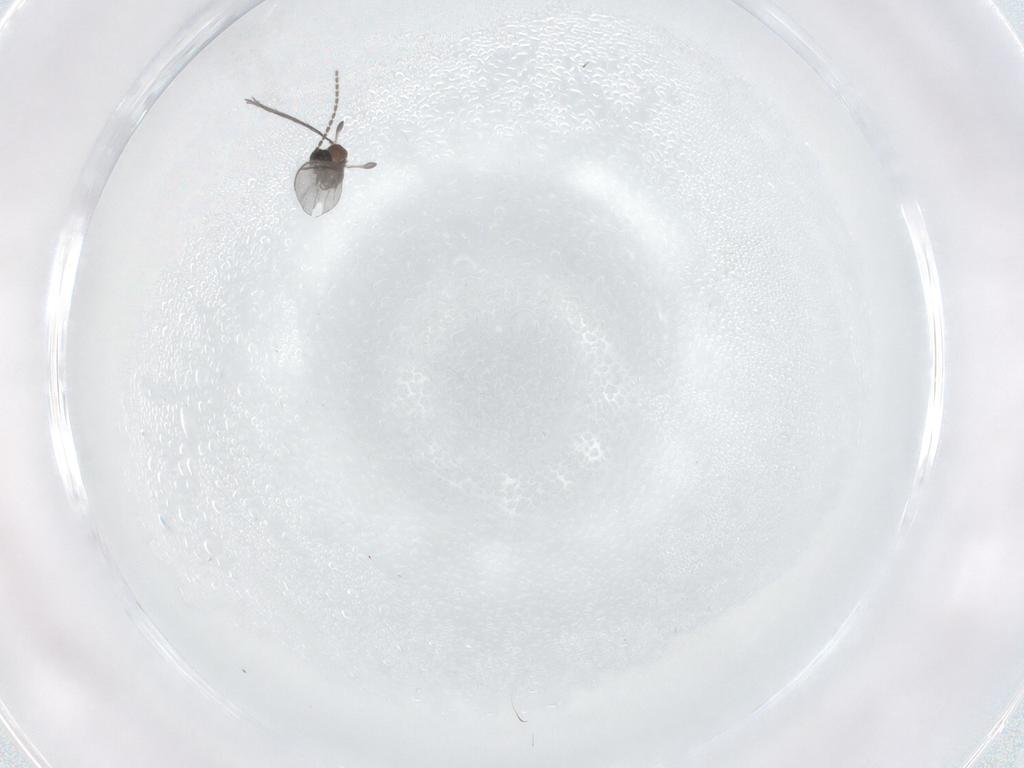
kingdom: Animalia
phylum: Arthropoda
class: Insecta
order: Diptera
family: Sciaridae
